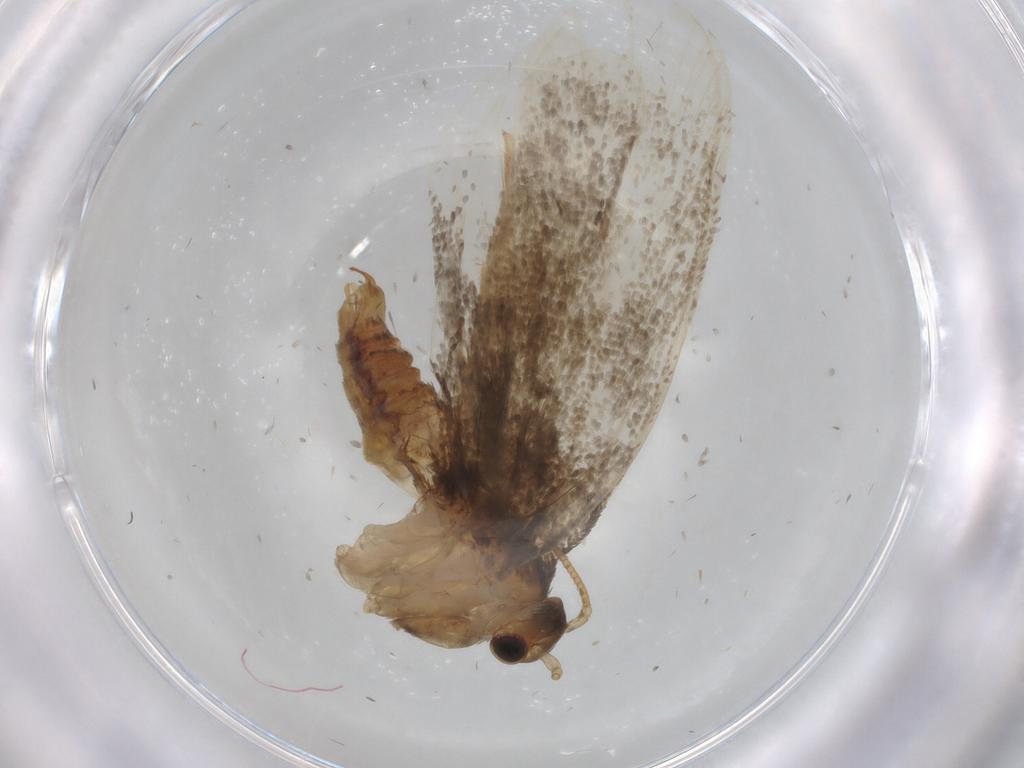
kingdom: Animalia
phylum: Arthropoda
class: Insecta
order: Lepidoptera
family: Tineidae
